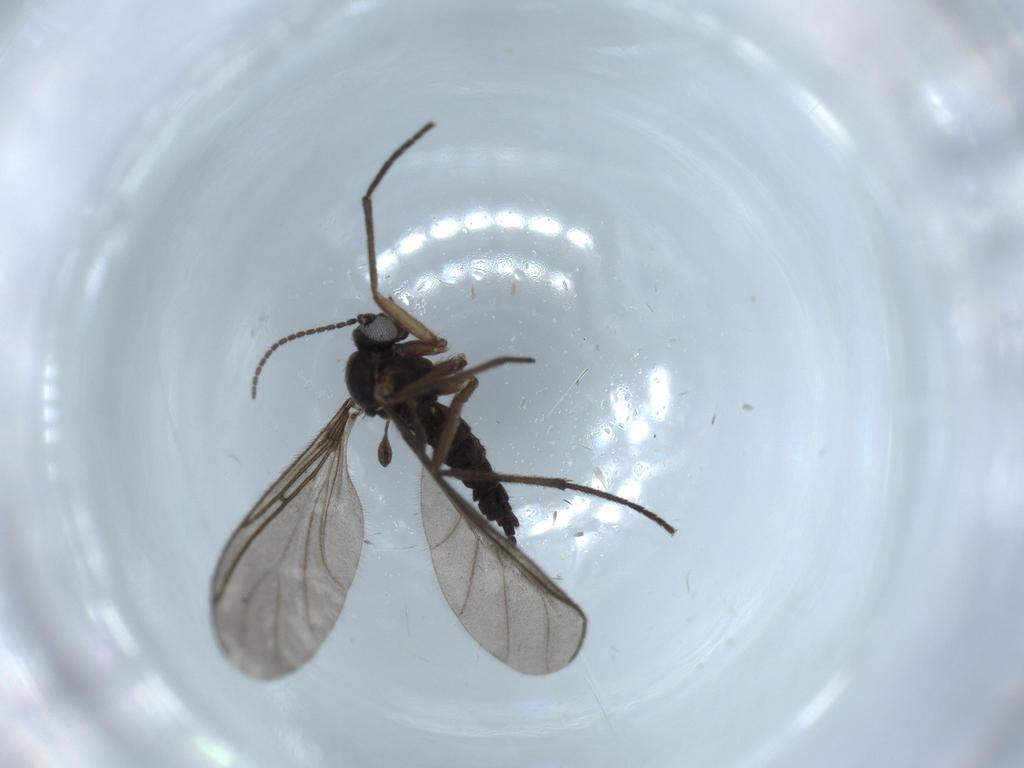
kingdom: Animalia
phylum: Arthropoda
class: Insecta
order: Diptera
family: Sciaridae
